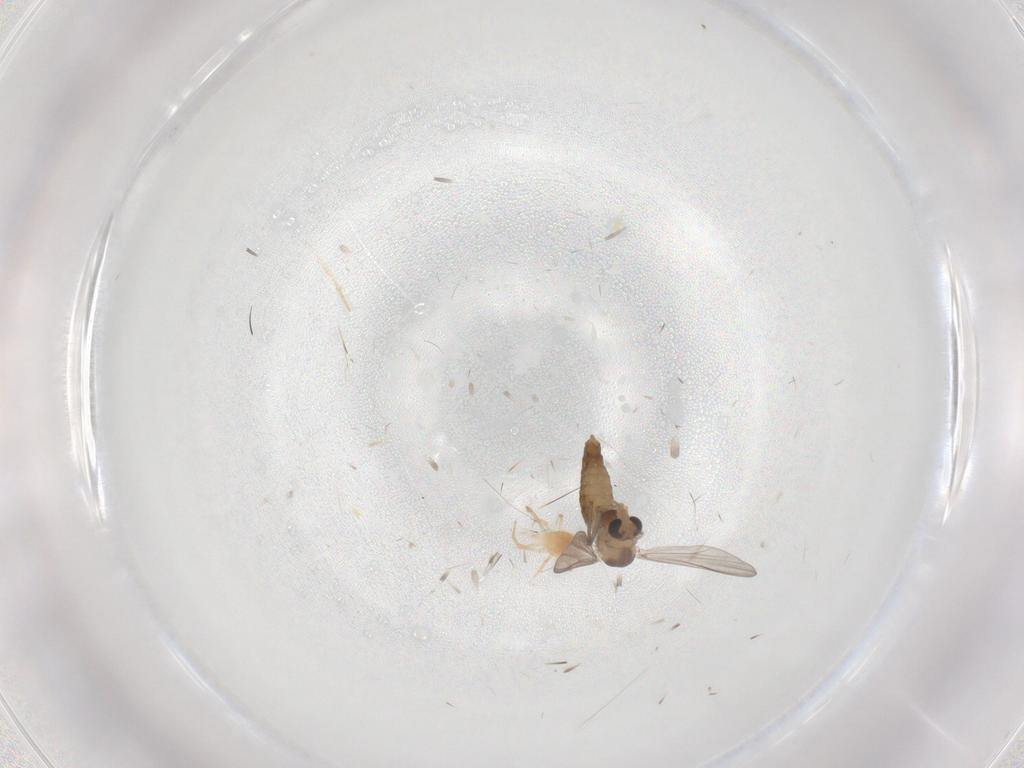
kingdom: Animalia
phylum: Arthropoda
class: Insecta
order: Diptera
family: Chironomidae
